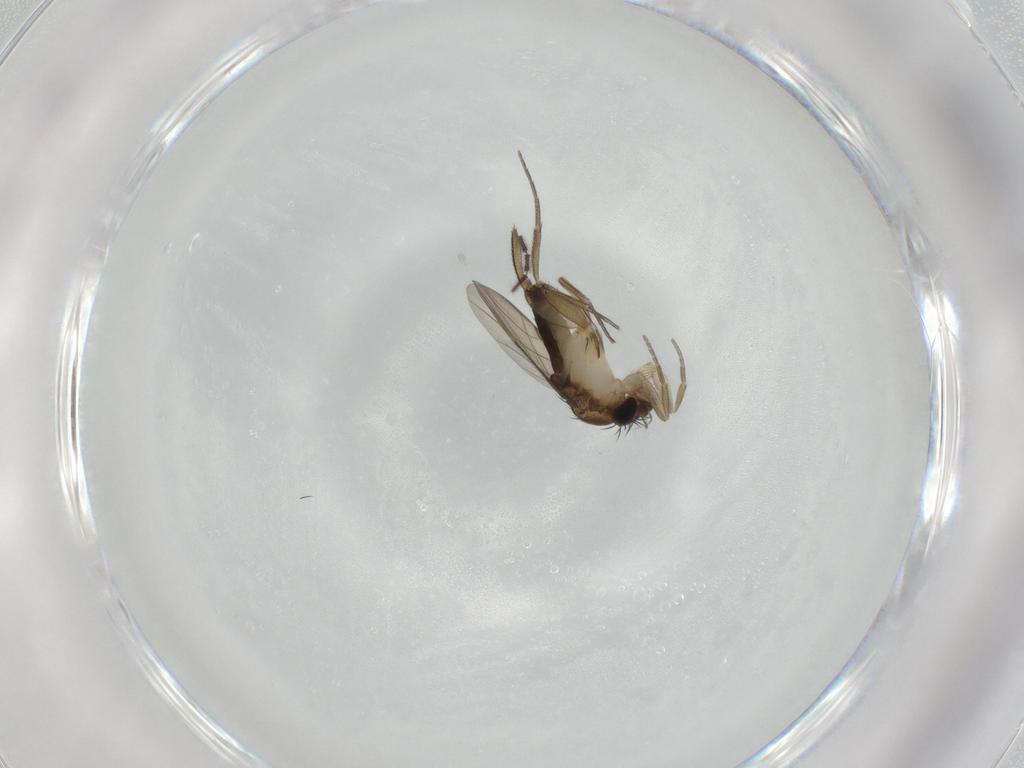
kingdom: Animalia
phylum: Arthropoda
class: Insecta
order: Diptera
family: Phoridae
